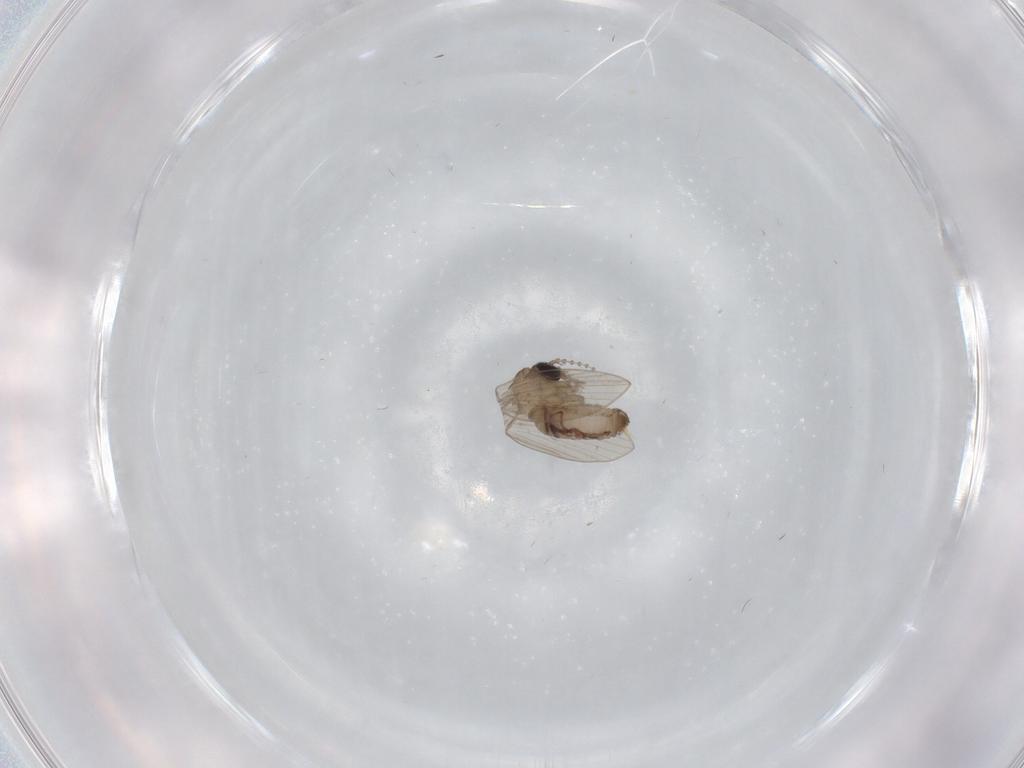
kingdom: Animalia
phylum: Arthropoda
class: Insecta
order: Diptera
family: Psychodidae
